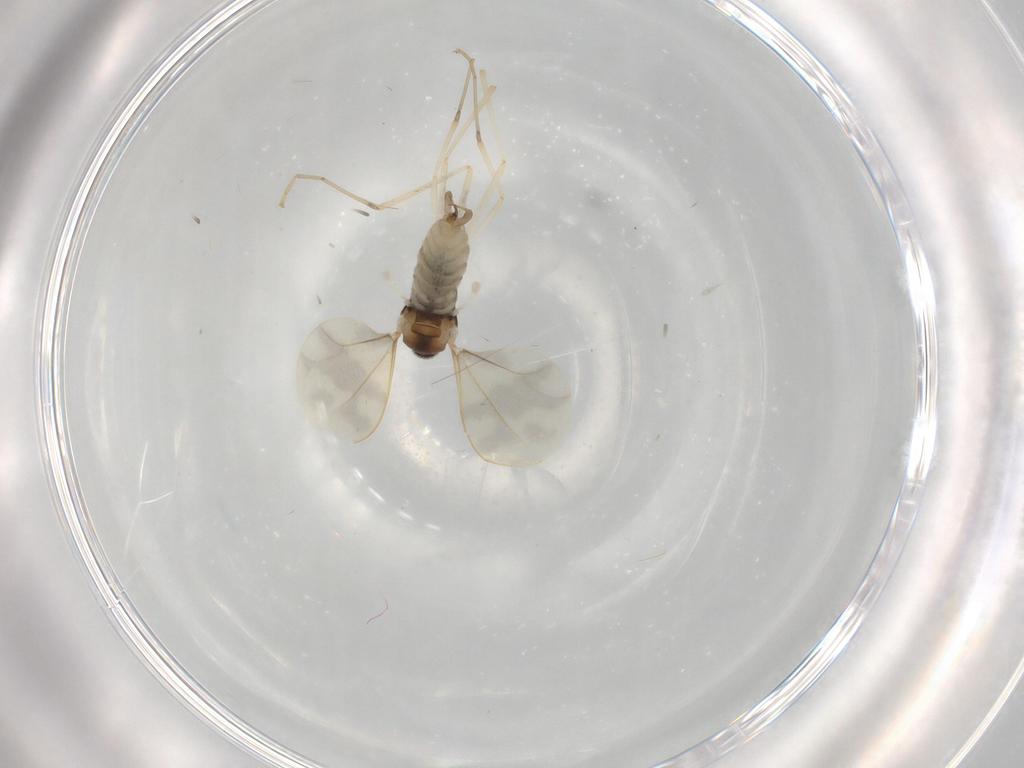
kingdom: Animalia
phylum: Arthropoda
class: Insecta
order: Diptera
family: Cecidomyiidae
